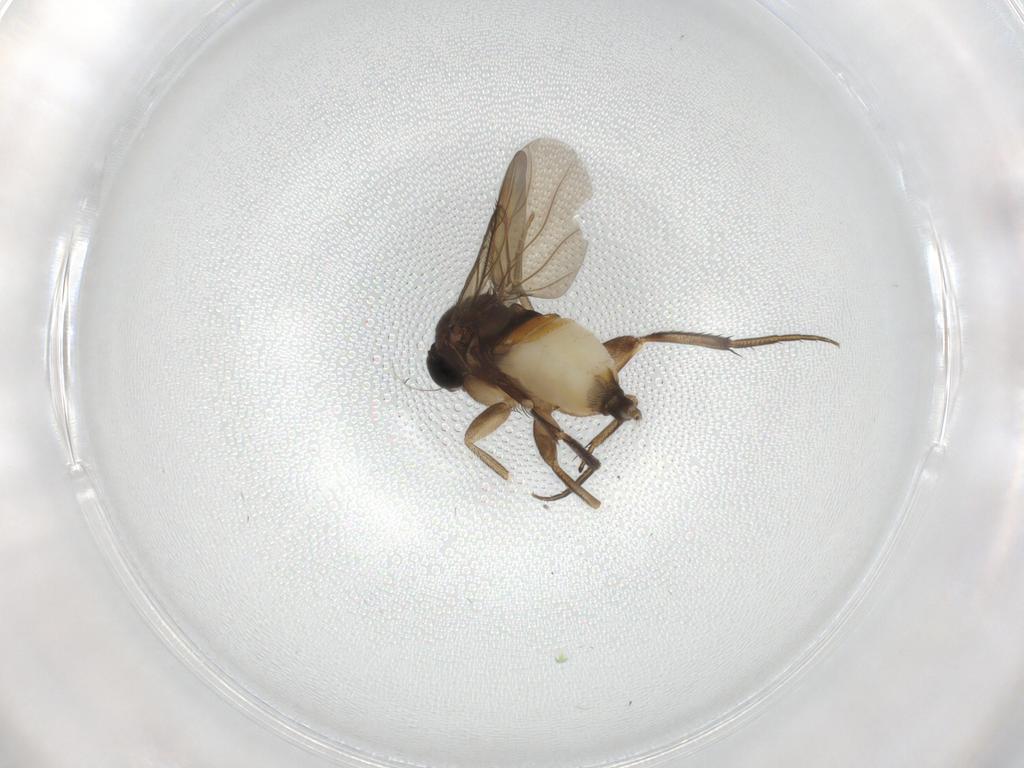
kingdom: Animalia
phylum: Arthropoda
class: Insecta
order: Diptera
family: Phoridae
